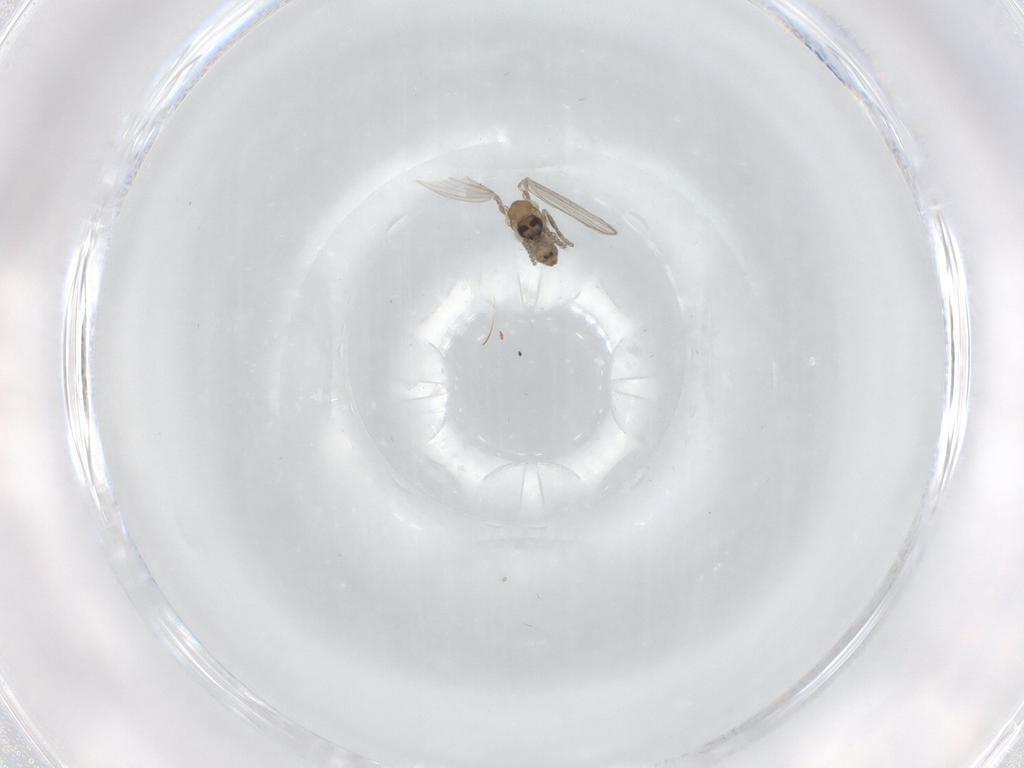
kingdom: Animalia
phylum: Arthropoda
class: Insecta
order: Diptera
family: Psychodidae
